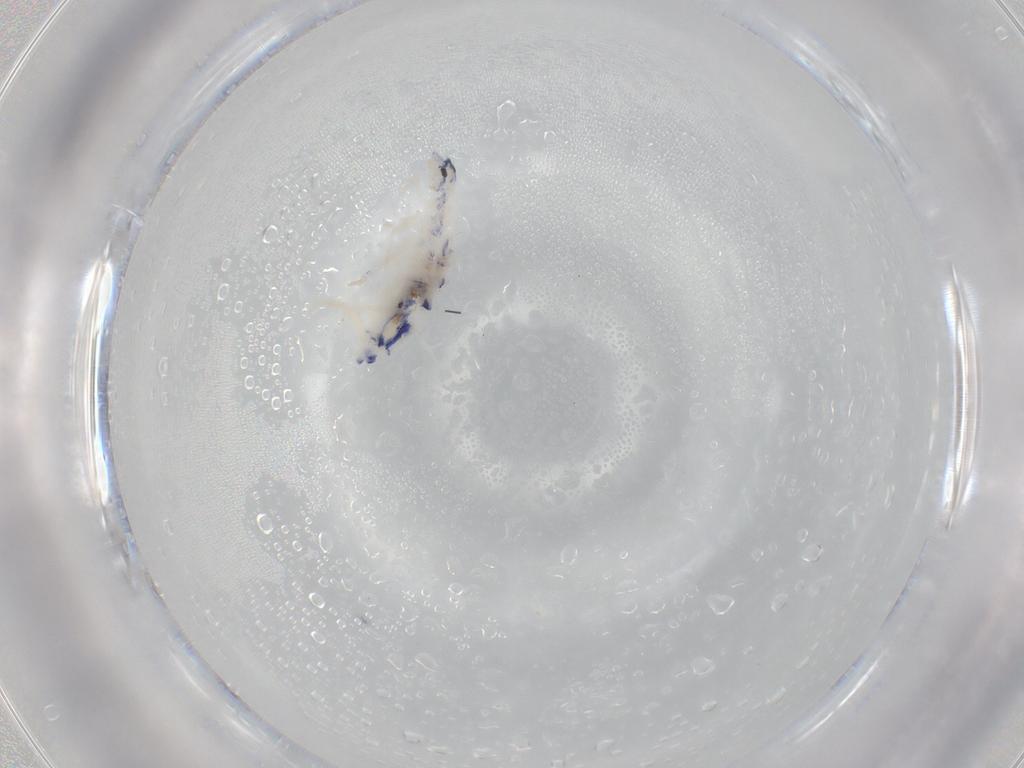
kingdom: Animalia
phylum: Arthropoda
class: Collembola
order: Entomobryomorpha
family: Entomobryidae
